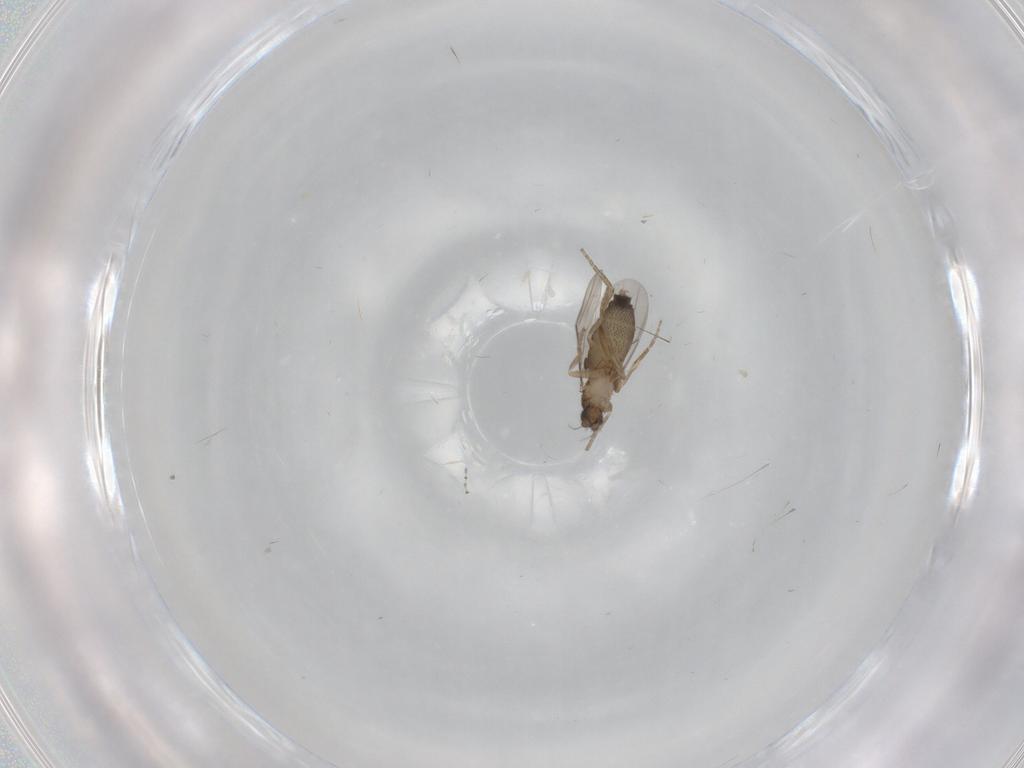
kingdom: Animalia
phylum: Arthropoda
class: Insecta
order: Diptera
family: Phoridae
